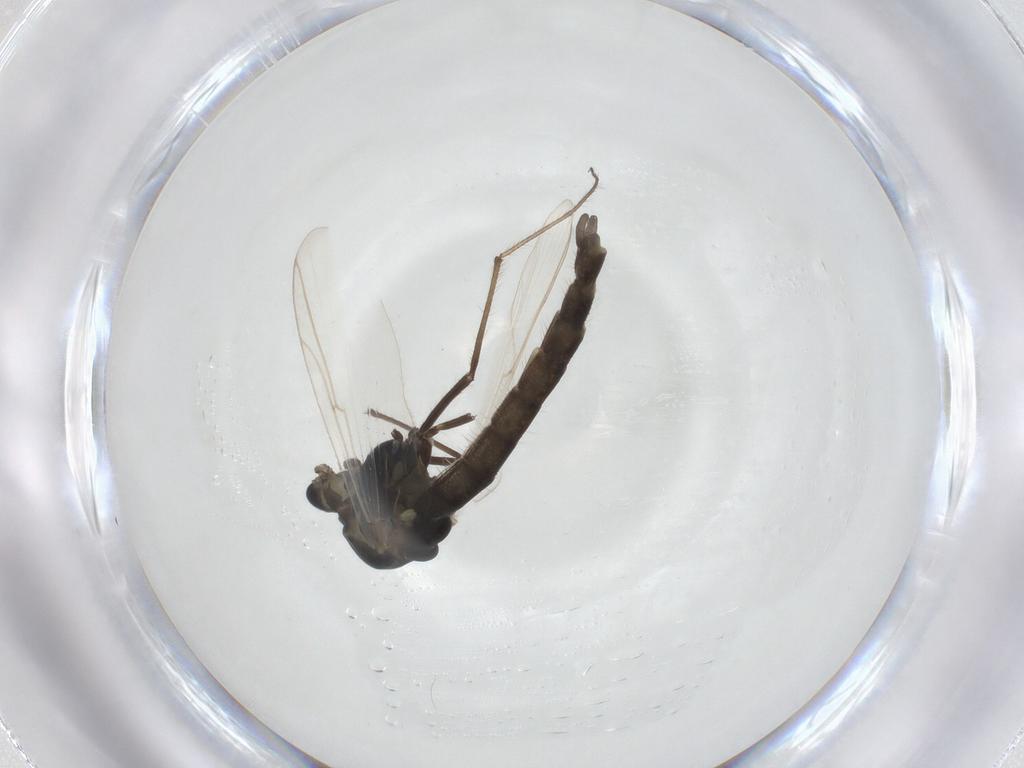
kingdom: Animalia
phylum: Arthropoda
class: Insecta
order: Diptera
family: Chironomidae
